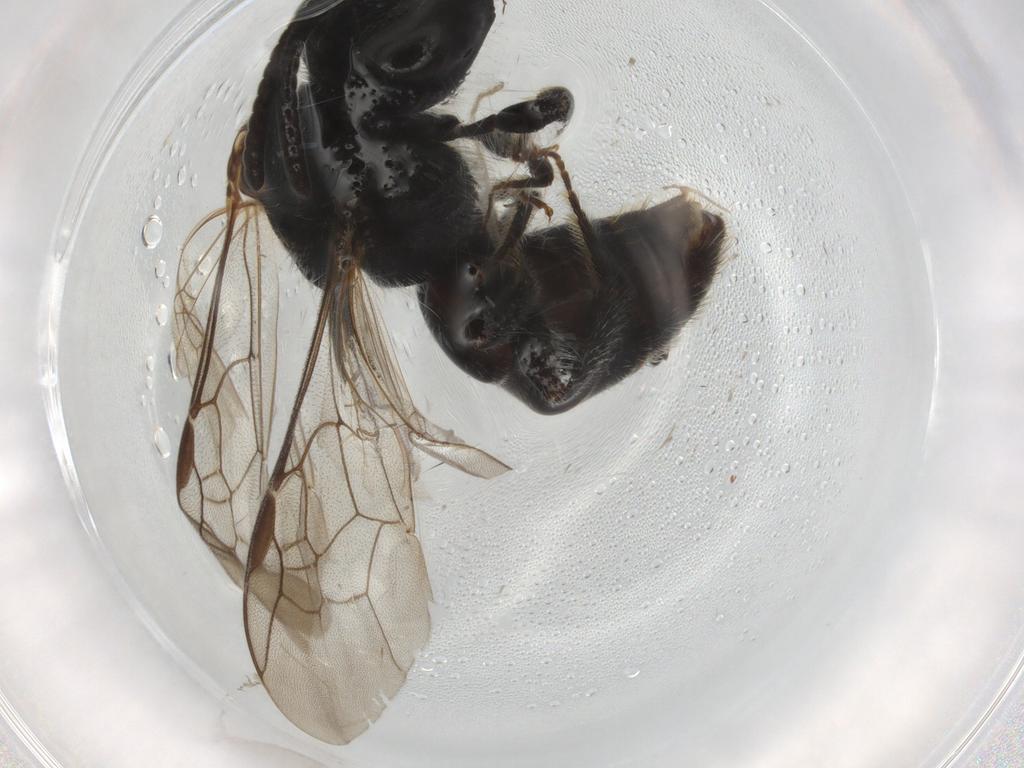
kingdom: Animalia
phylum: Arthropoda
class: Insecta
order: Hymenoptera
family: Scelionidae
